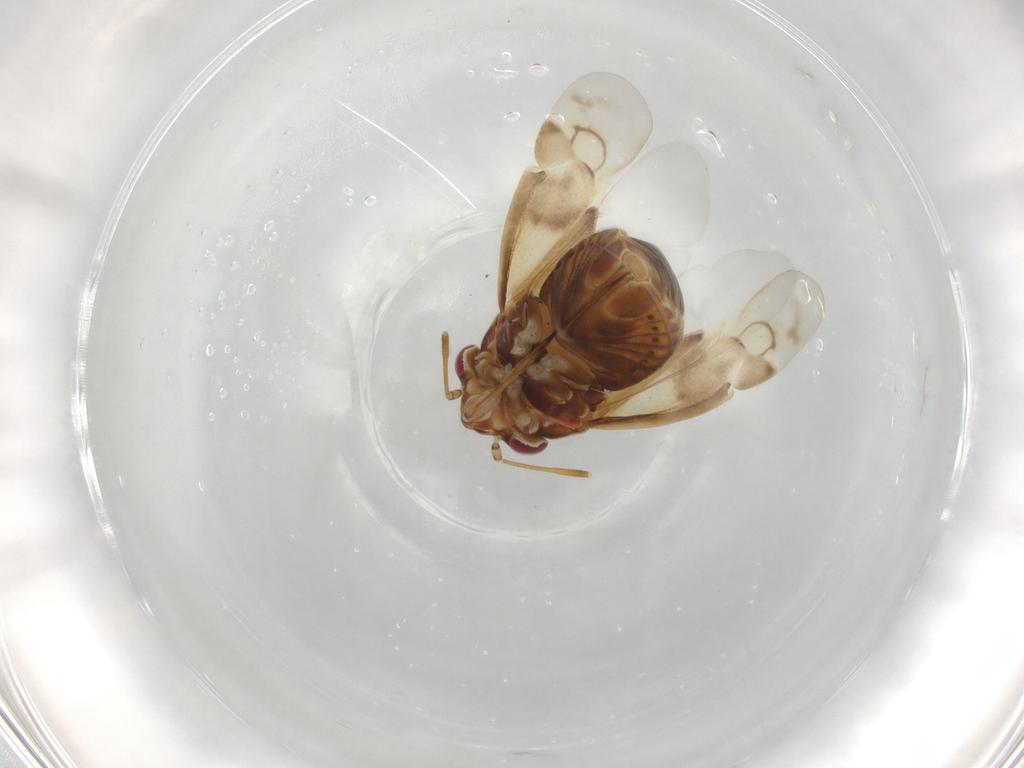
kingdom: Animalia
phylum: Arthropoda
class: Insecta
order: Hemiptera
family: Miridae
